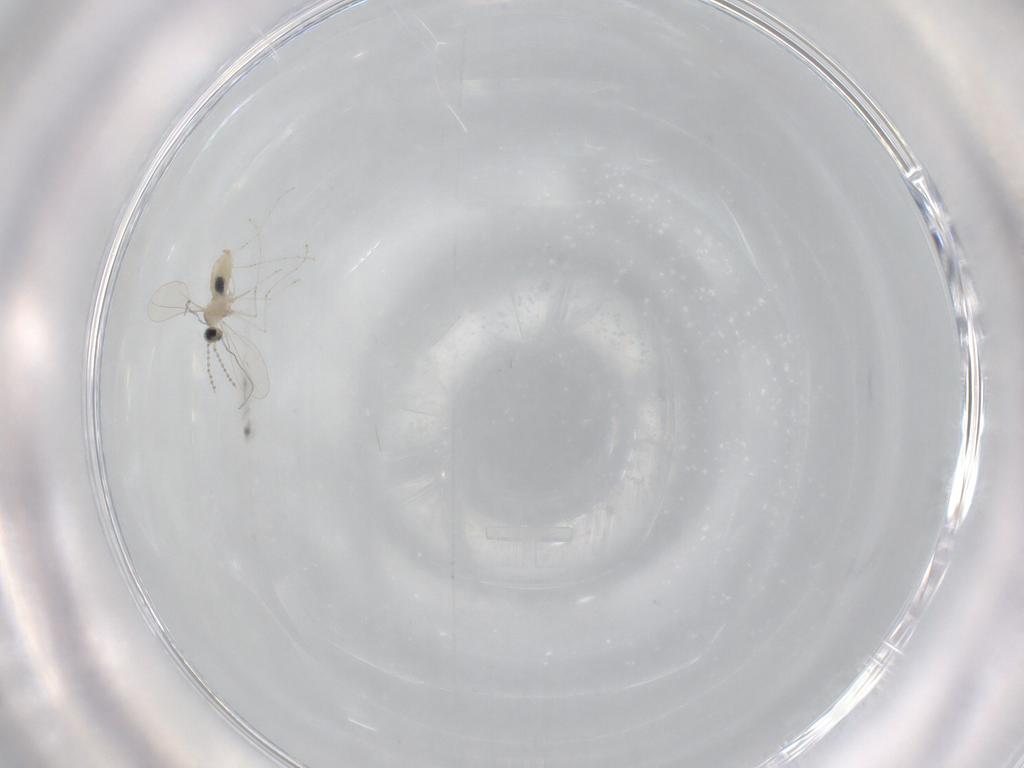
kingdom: Animalia
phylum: Arthropoda
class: Insecta
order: Diptera
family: Cecidomyiidae
